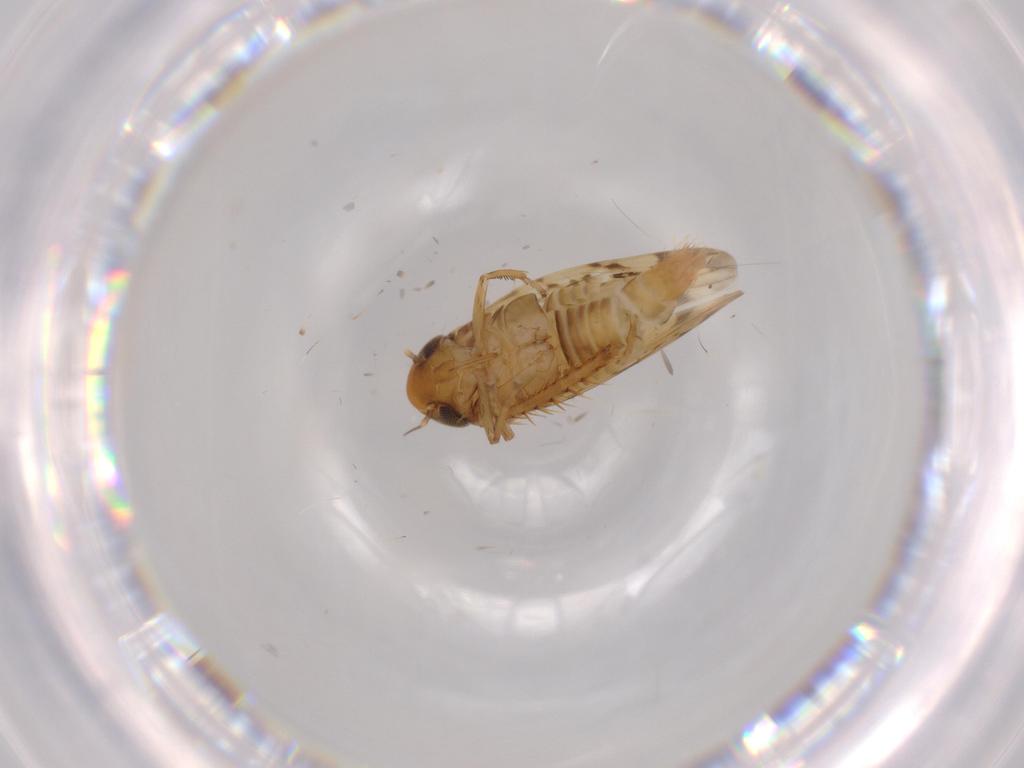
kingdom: Animalia
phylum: Arthropoda
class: Insecta
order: Hemiptera
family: Cicadellidae
